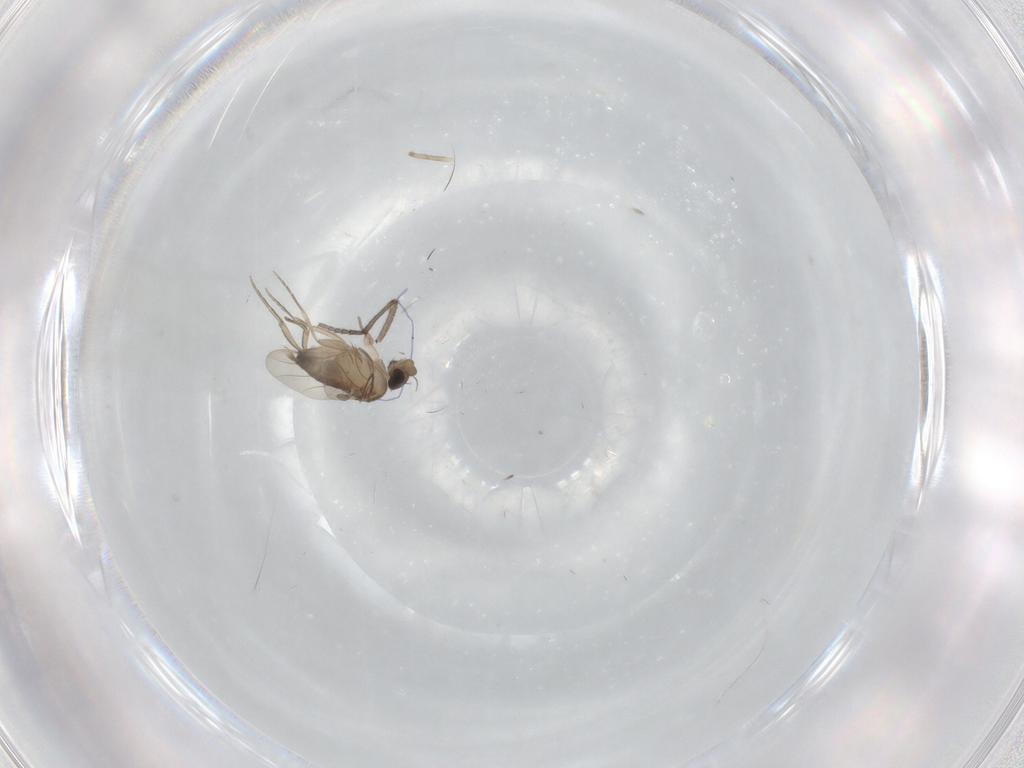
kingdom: Animalia
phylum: Arthropoda
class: Insecta
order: Diptera
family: Phoridae
